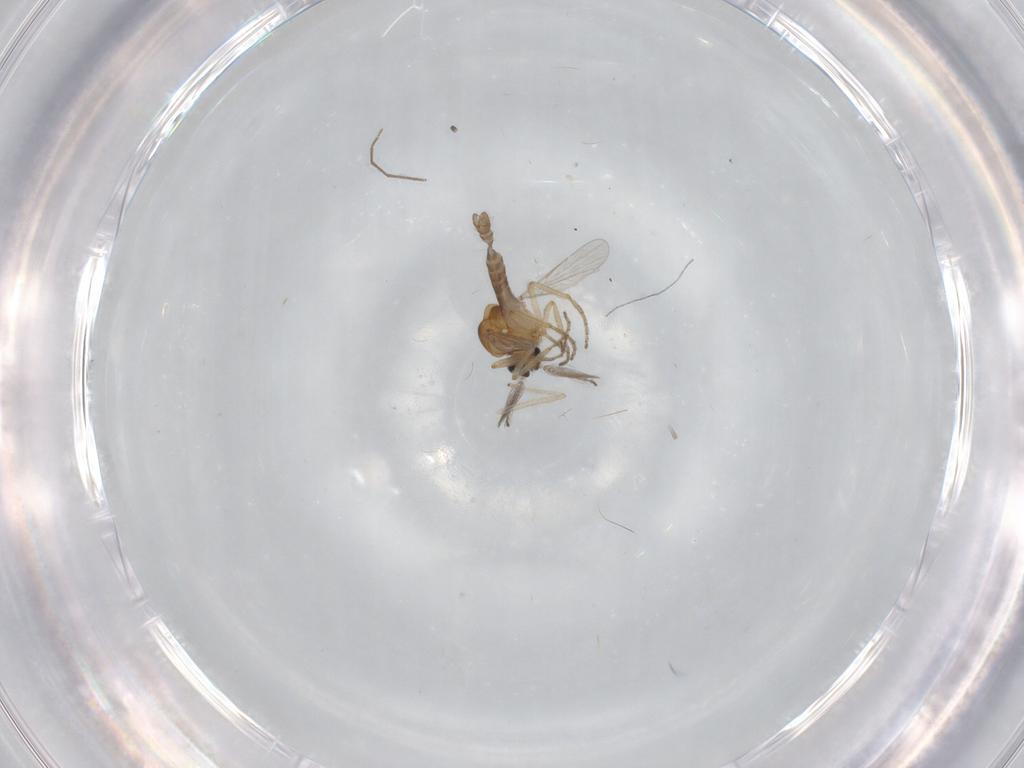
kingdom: Animalia
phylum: Arthropoda
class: Insecta
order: Diptera
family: Chironomidae
